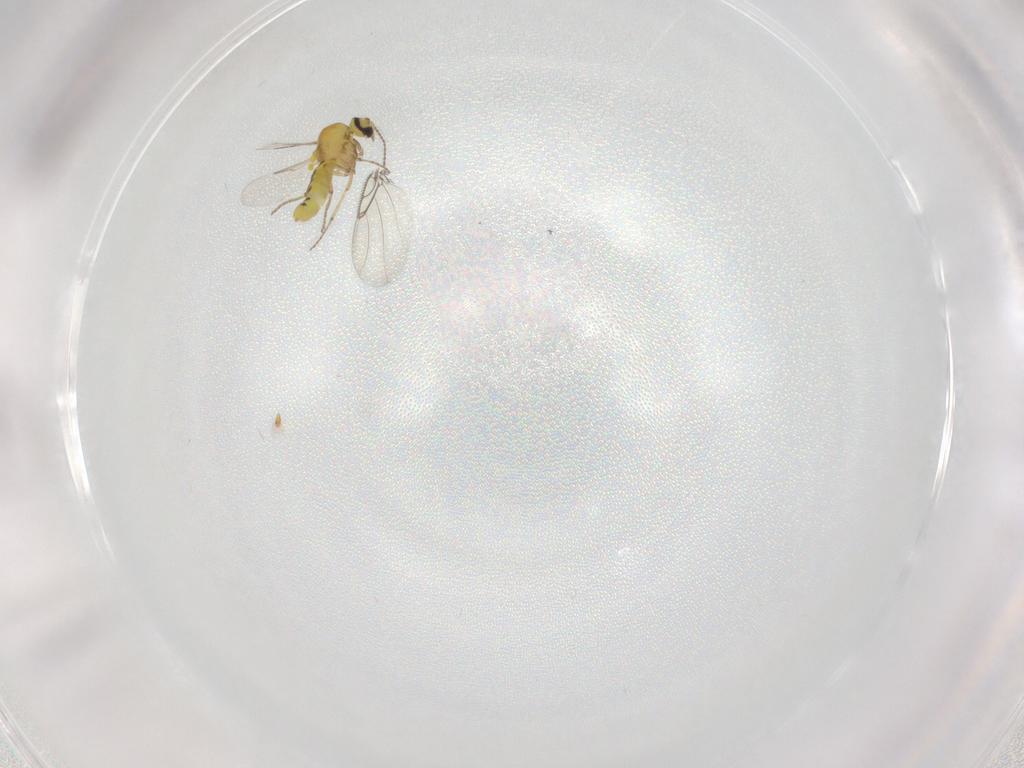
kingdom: Animalia
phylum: Arthropoda
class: Insecta
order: Diptera
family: Ceratopogonidae
